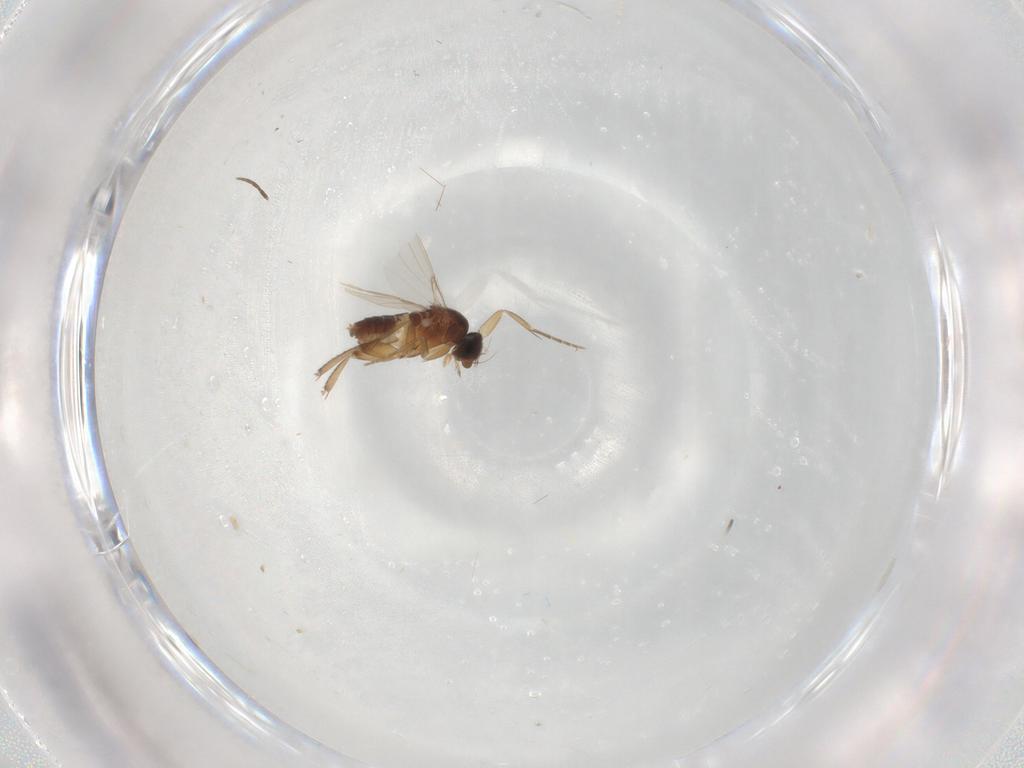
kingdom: Animalia
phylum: Arthropoda
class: Insecta
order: Diptera
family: Phoridae
